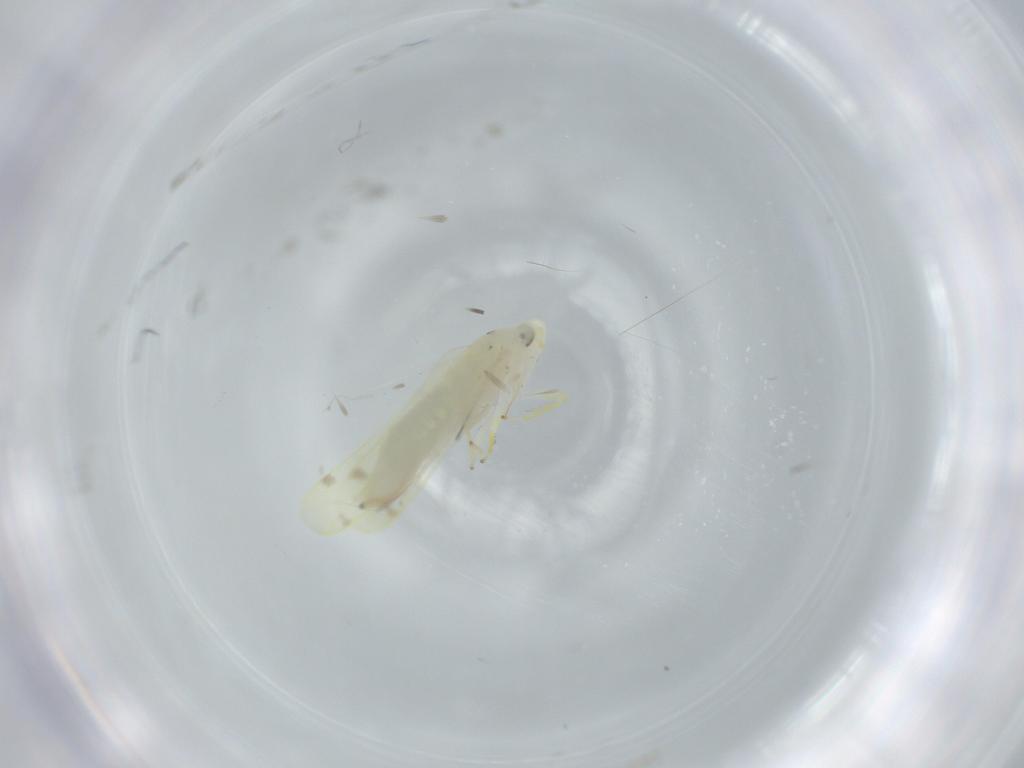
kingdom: Animalia
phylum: Arthropoda
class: Insecta
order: Hemiptera
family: Cicadellidae
